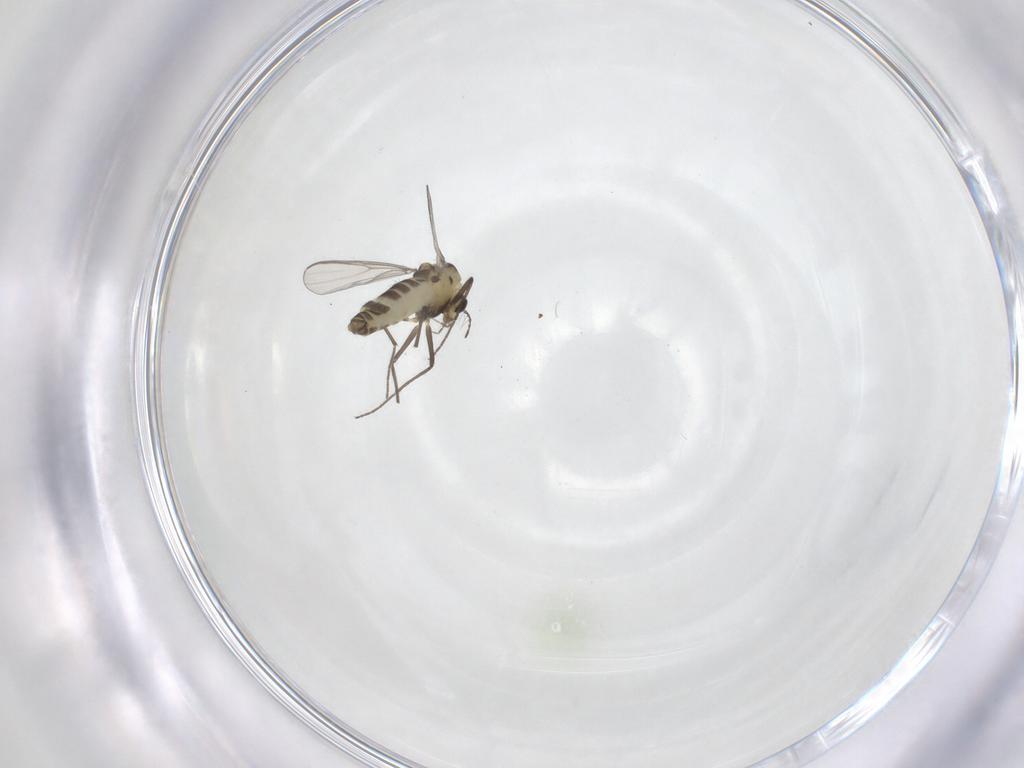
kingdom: Animalia
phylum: Arthropoda
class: Insecta
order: Diptera
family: Chironomidae
